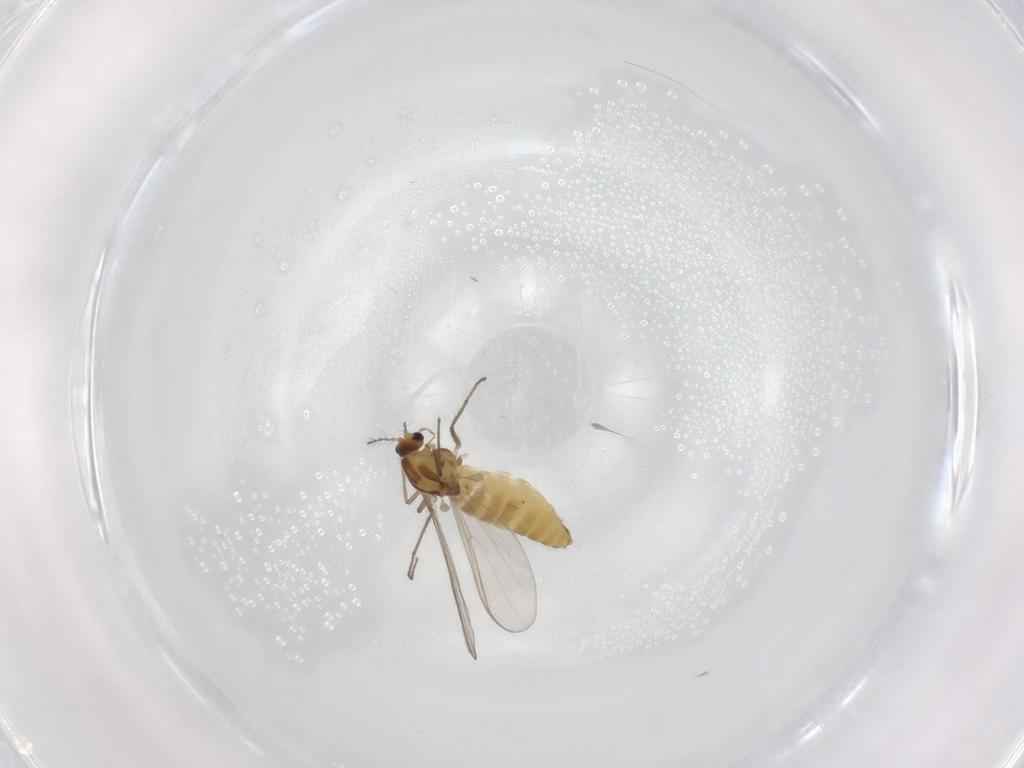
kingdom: Animalia
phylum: Arthropoda
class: Insecta
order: Diptera
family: Chironomidae
